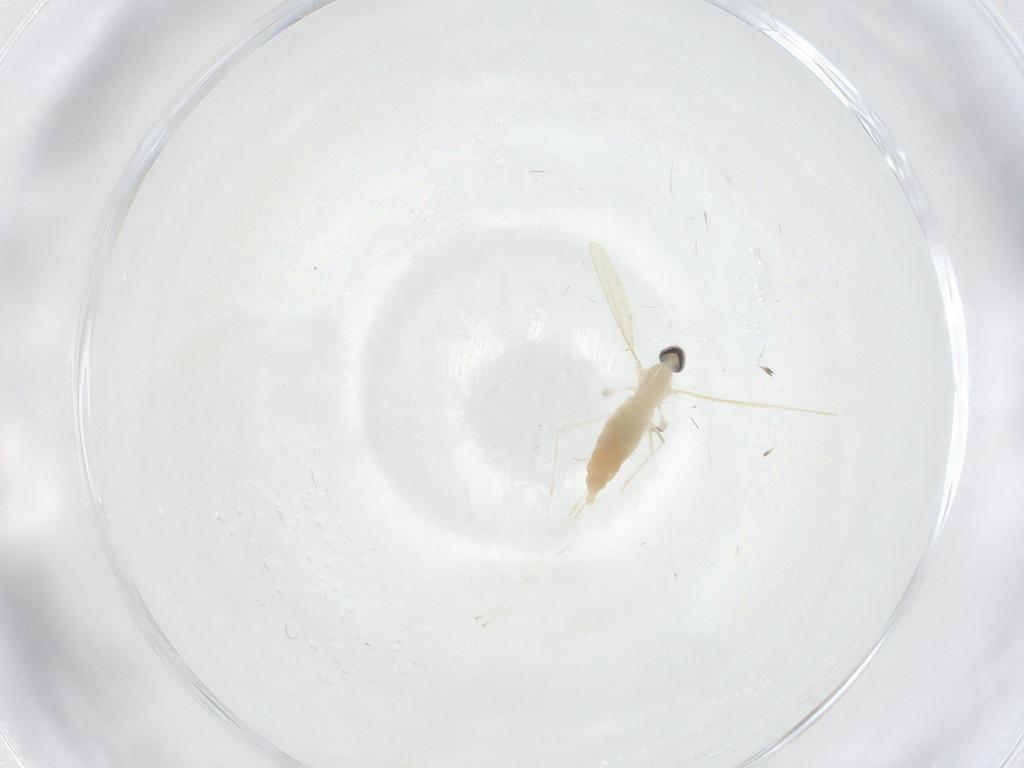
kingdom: Animalia
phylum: Arthropoda
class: Insecta
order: Diptera
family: Cecidomyiidae
